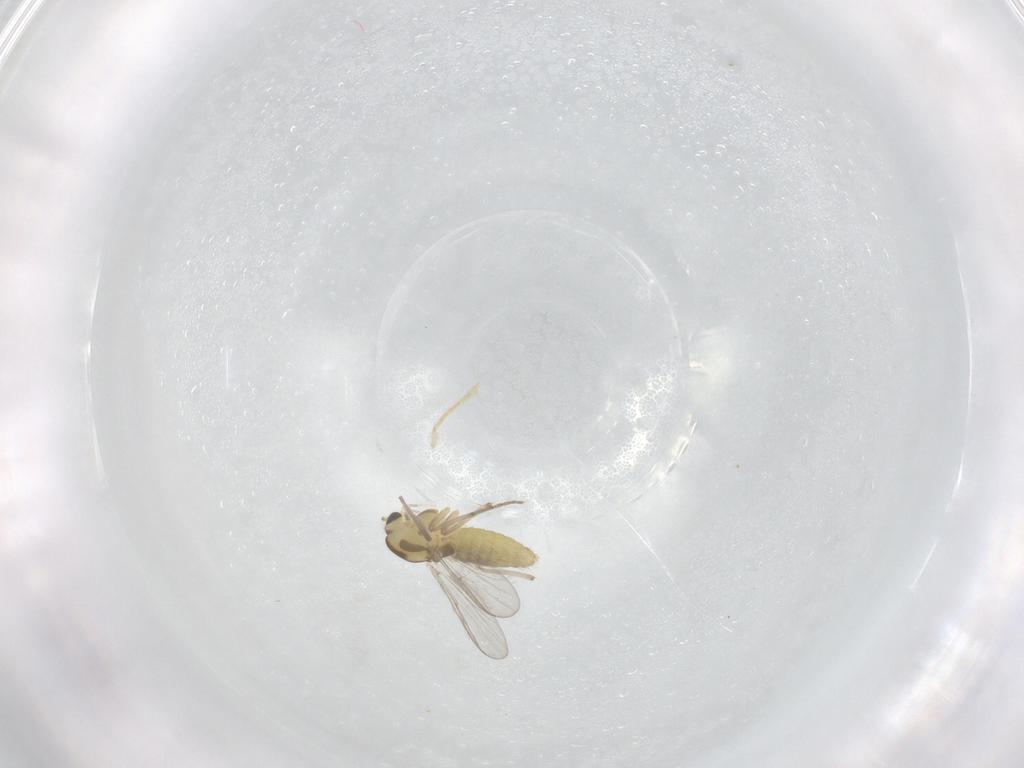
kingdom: Animalia
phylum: Arthropoda
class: Insecta
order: Diptera
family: Chironomidae
